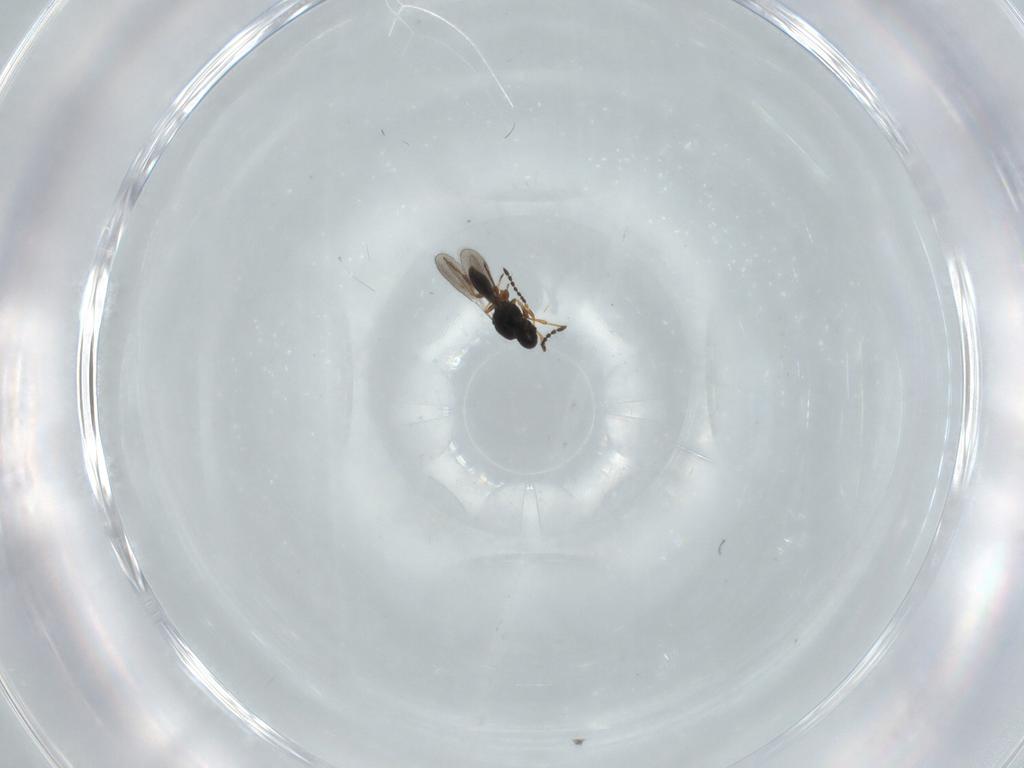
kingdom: Animalia
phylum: Arthropoda
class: Insecta
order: Hymenoptera
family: Platygastridae
